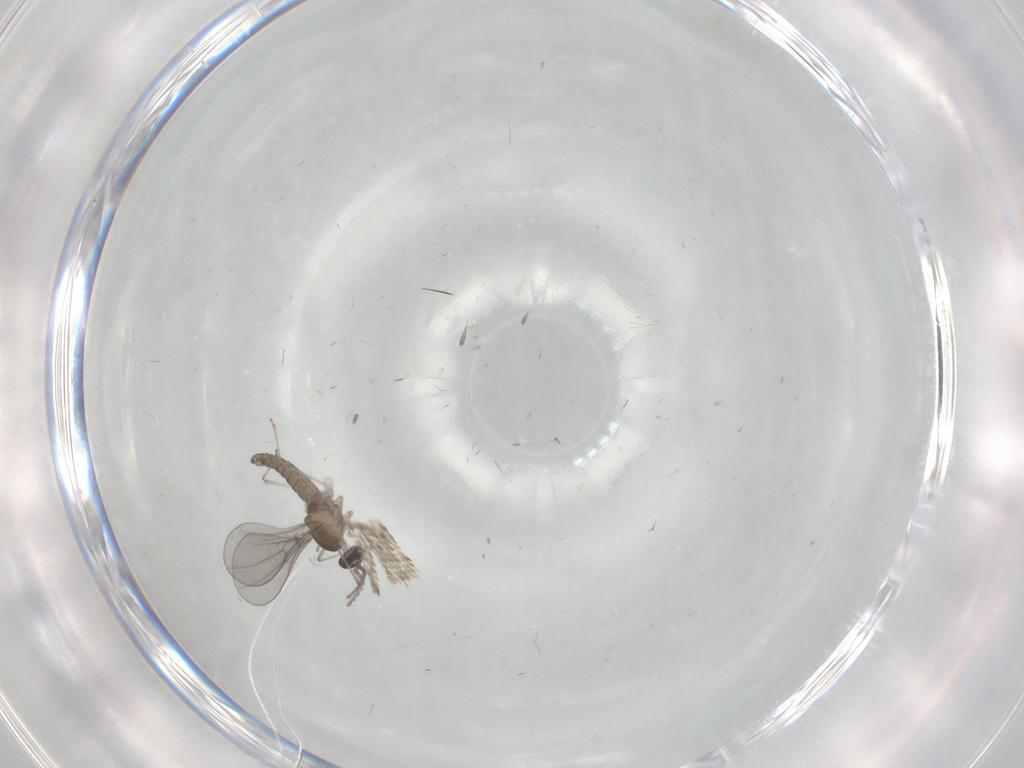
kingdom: Animalia
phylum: Arthropoda
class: Insecta
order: Diptera
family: Cecidomyiidae
